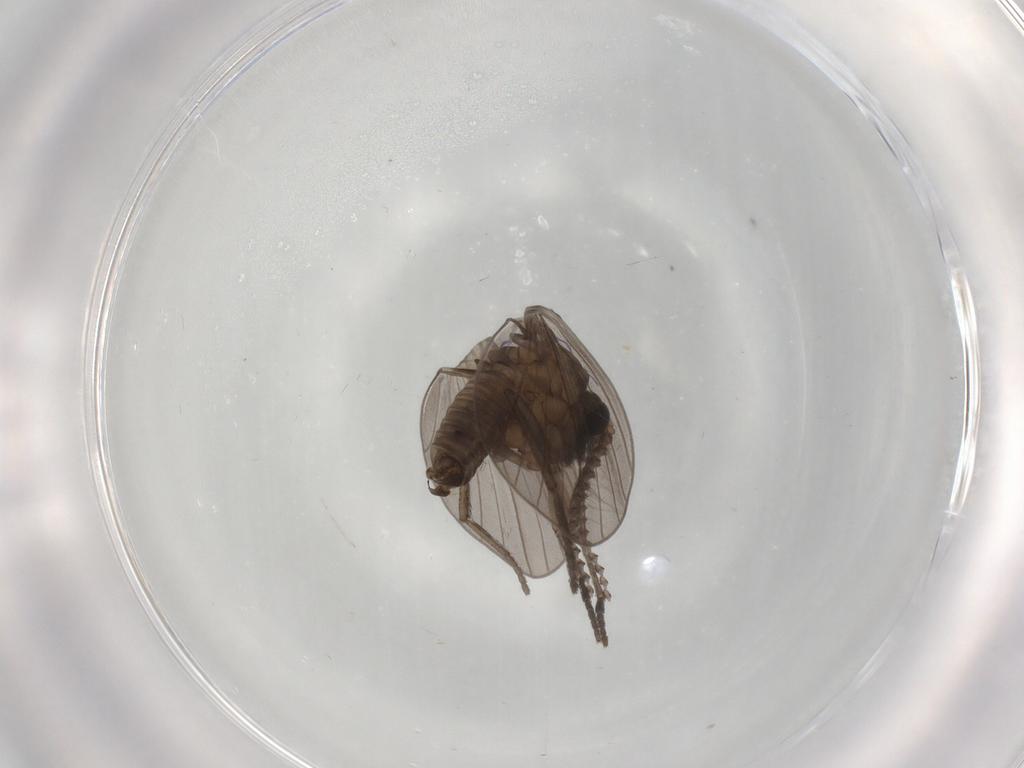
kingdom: Animalia
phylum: Arthropoda
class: Insecta
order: Diptera
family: Psychodidae
